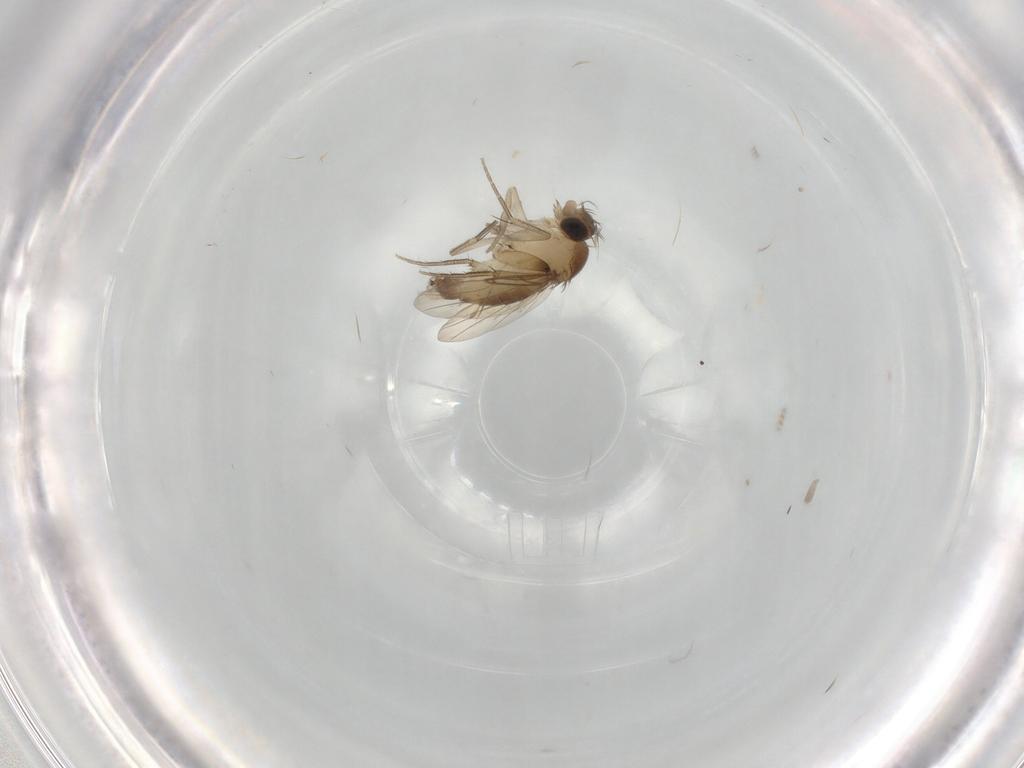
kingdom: Animalia
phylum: Arthropoda
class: Insecta
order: Diptera
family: Phoridae
